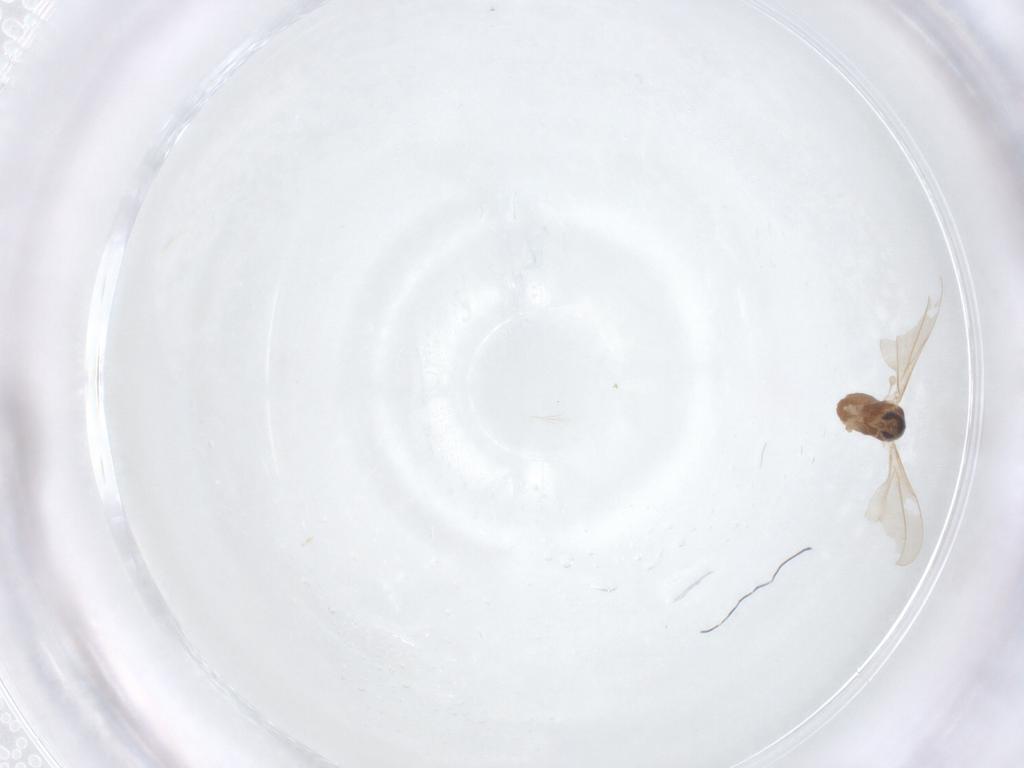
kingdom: Animalia
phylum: Arthropoda
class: Insecta
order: Diptera
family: Cecidomyiidae
